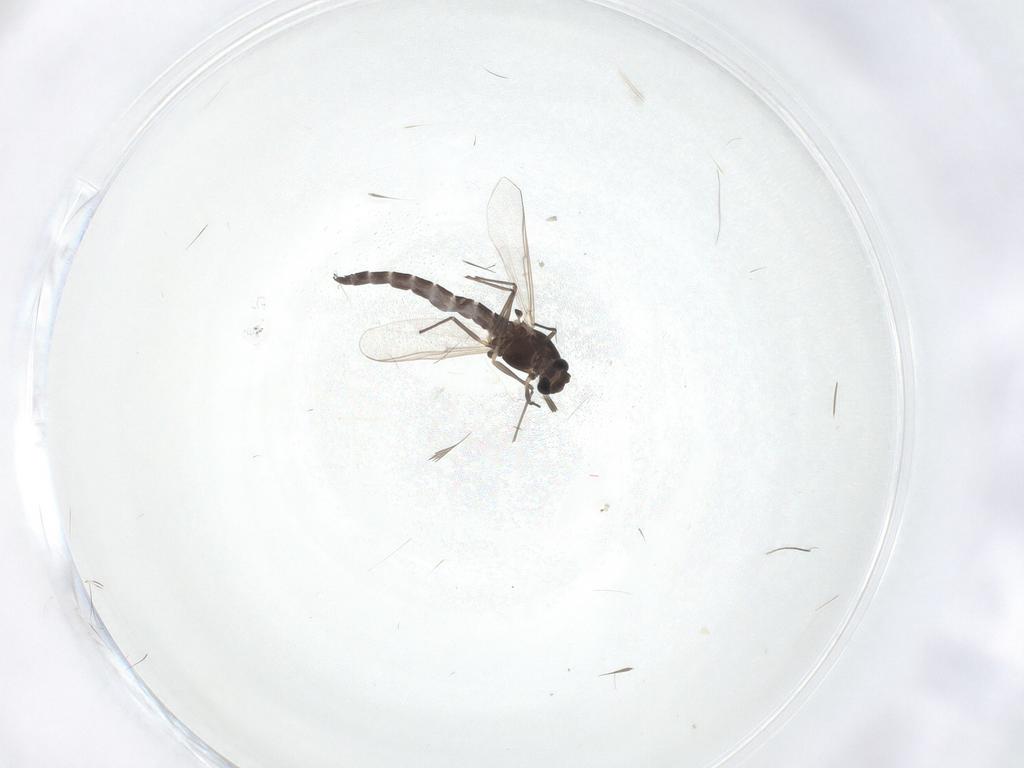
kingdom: Animalia
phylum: Arthropoda
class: Insecta
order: Diptera
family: Chironomidae
